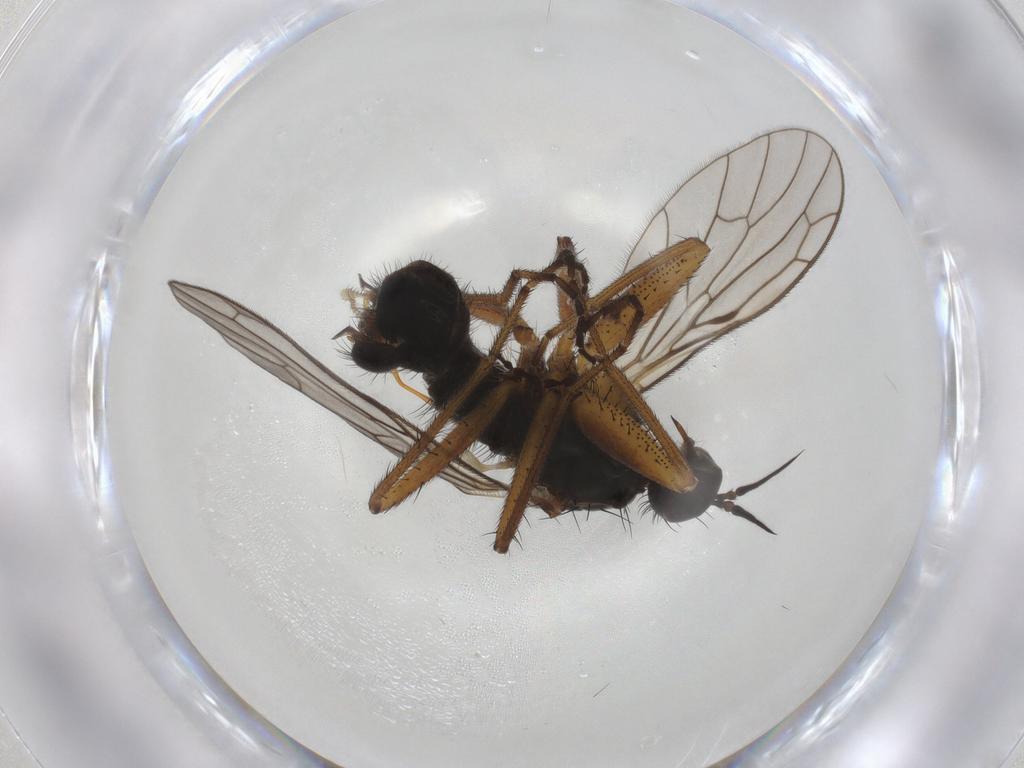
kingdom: Animalia
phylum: Arthropoda
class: Insecta
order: Diptera
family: Empididae
